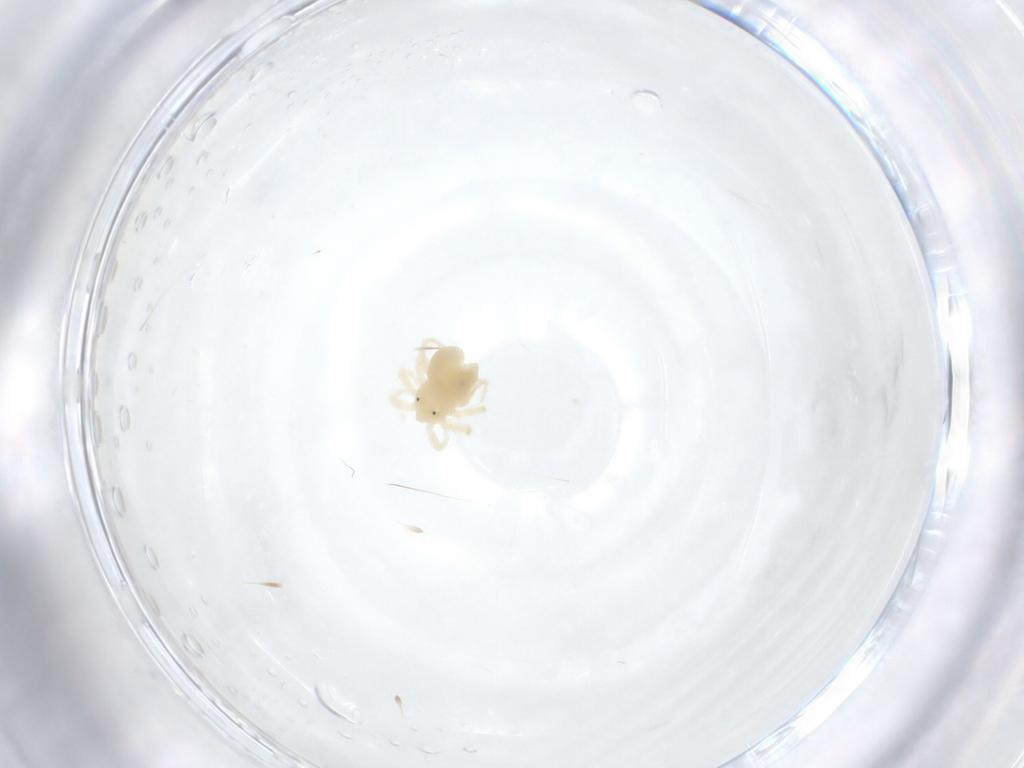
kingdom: Animalia
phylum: Arthropoda
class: Arachnida
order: Trombidiformes
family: Anystidae
